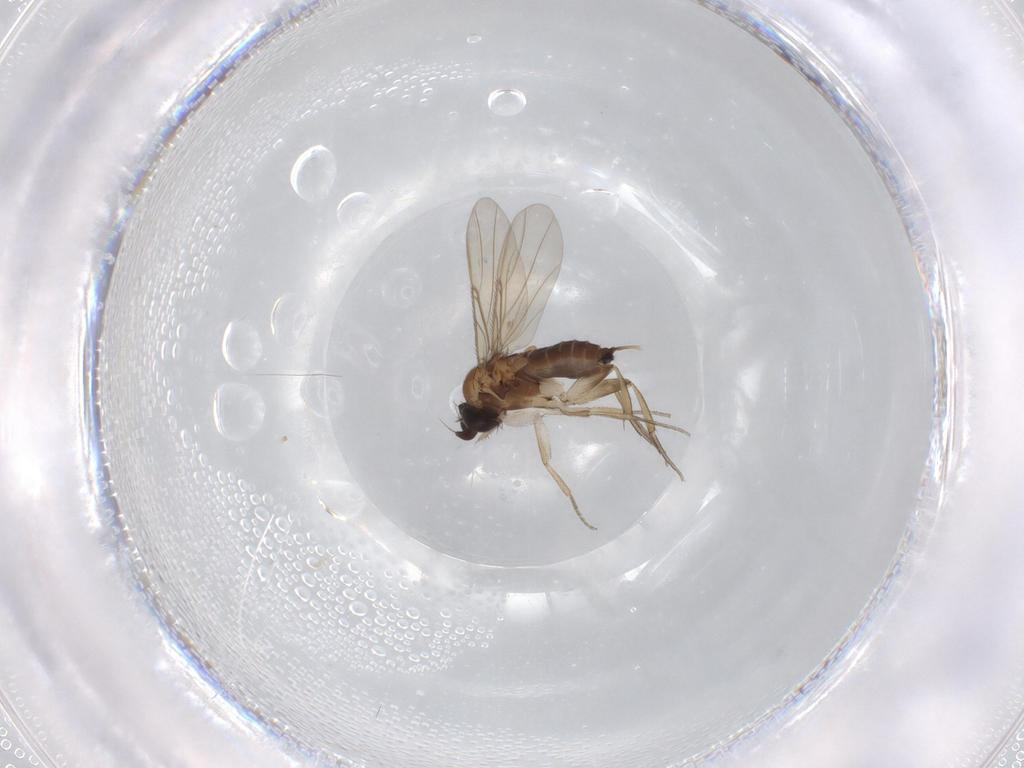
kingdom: Animalia
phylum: Arthropoda
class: Insecta
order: Diptera
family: Phoridae
